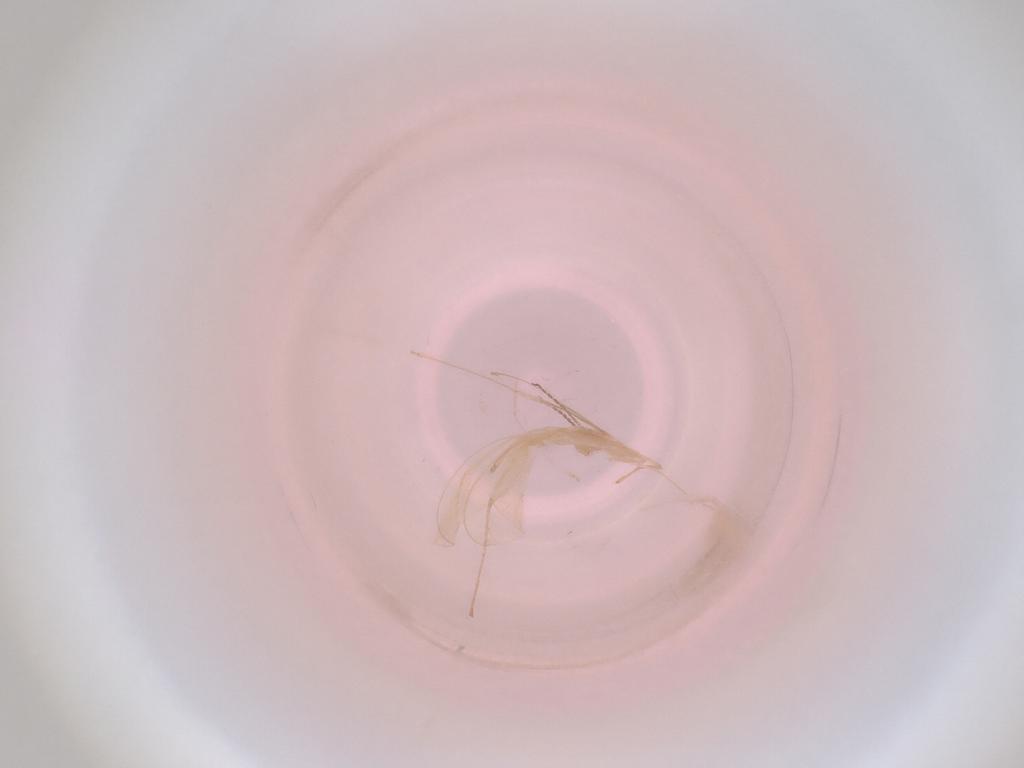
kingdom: Animalia
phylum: Arthropoda
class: Insecta
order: Diptera
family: Cecidomyiidae
